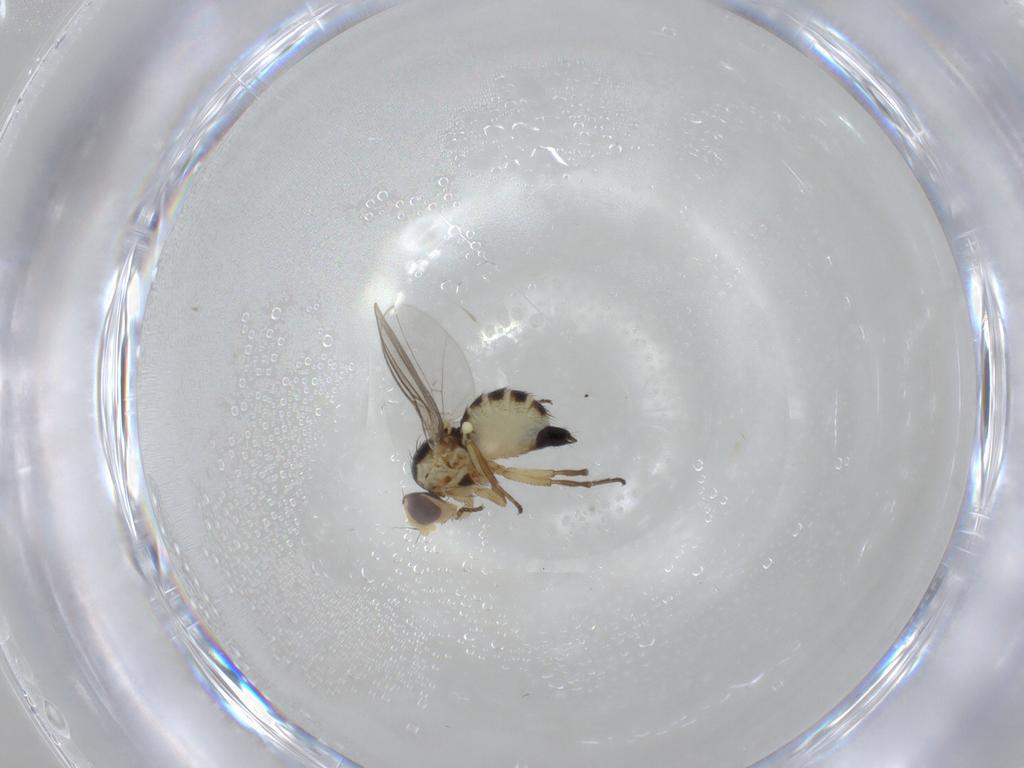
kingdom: Animalia
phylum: Arthropoda
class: Insecta
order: Diptera
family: Agromyzidae
